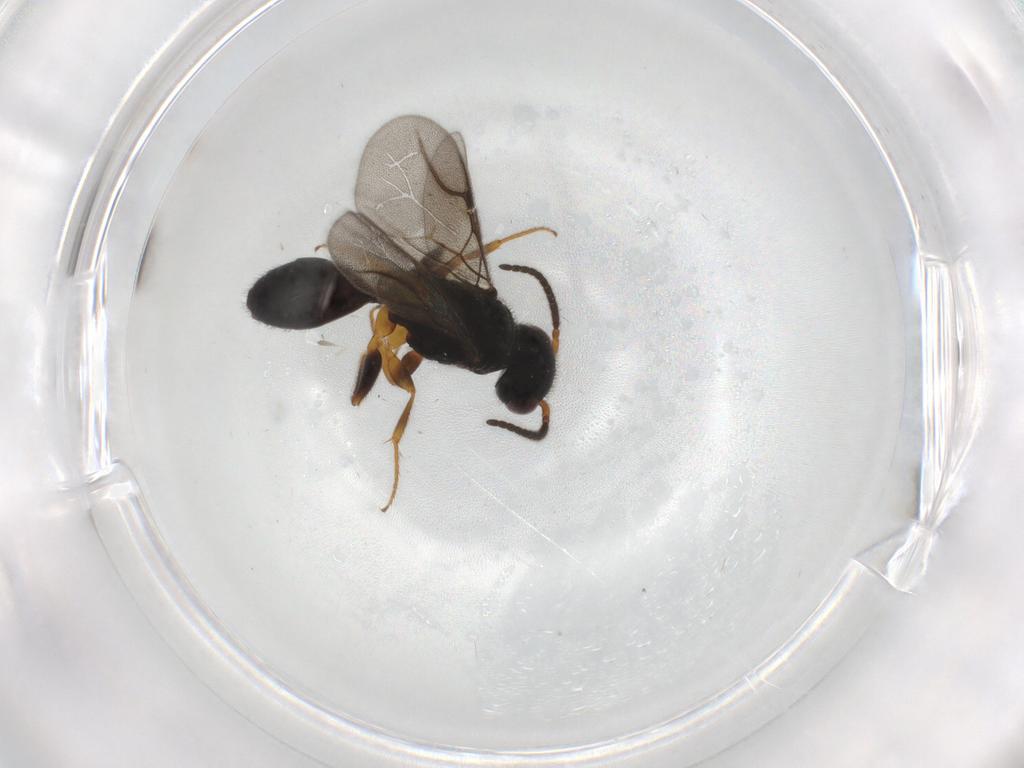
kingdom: Animalia
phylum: Arthropoda
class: Insecta
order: Hymenoptera
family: Bethylidae
